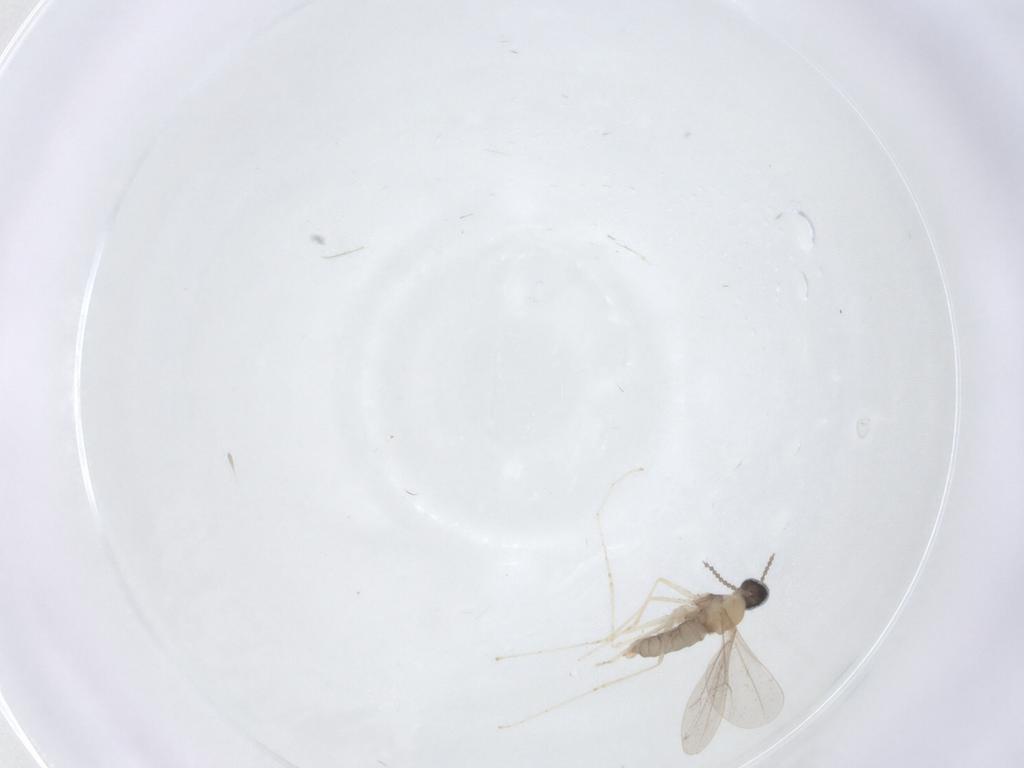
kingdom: Animalia
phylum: Arthropoda
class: Insecta
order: Diptera
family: Cecidomyiidae
